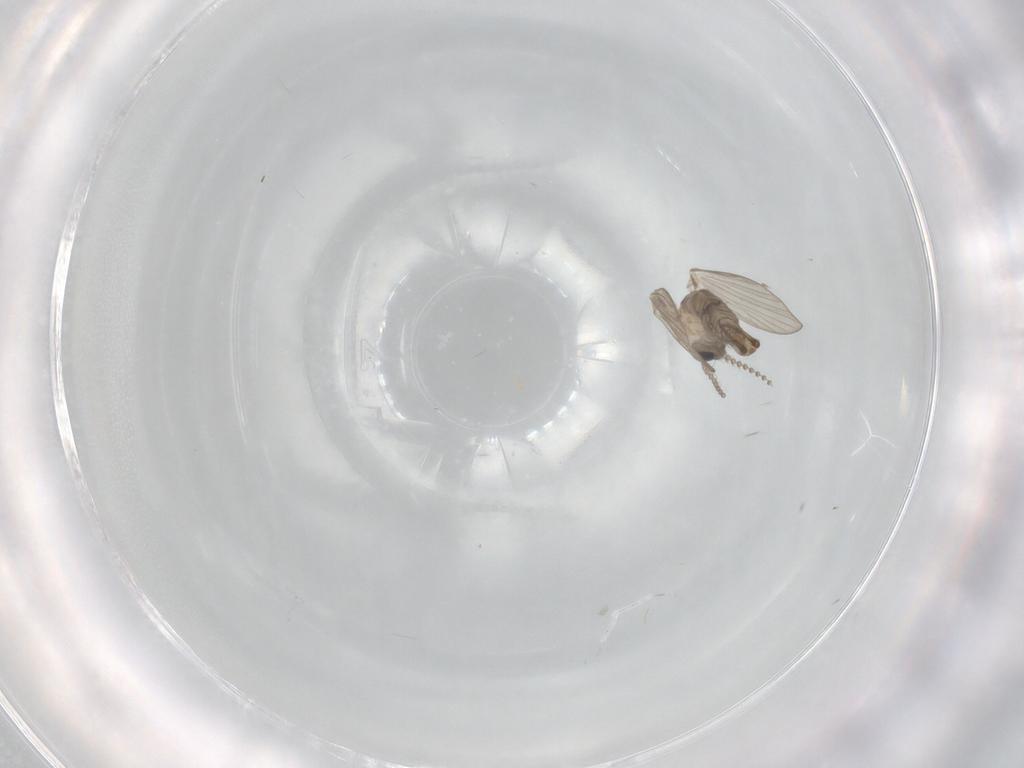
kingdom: Animalia
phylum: Arthropoda
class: Insecta
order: Diptera
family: Psychodidae
